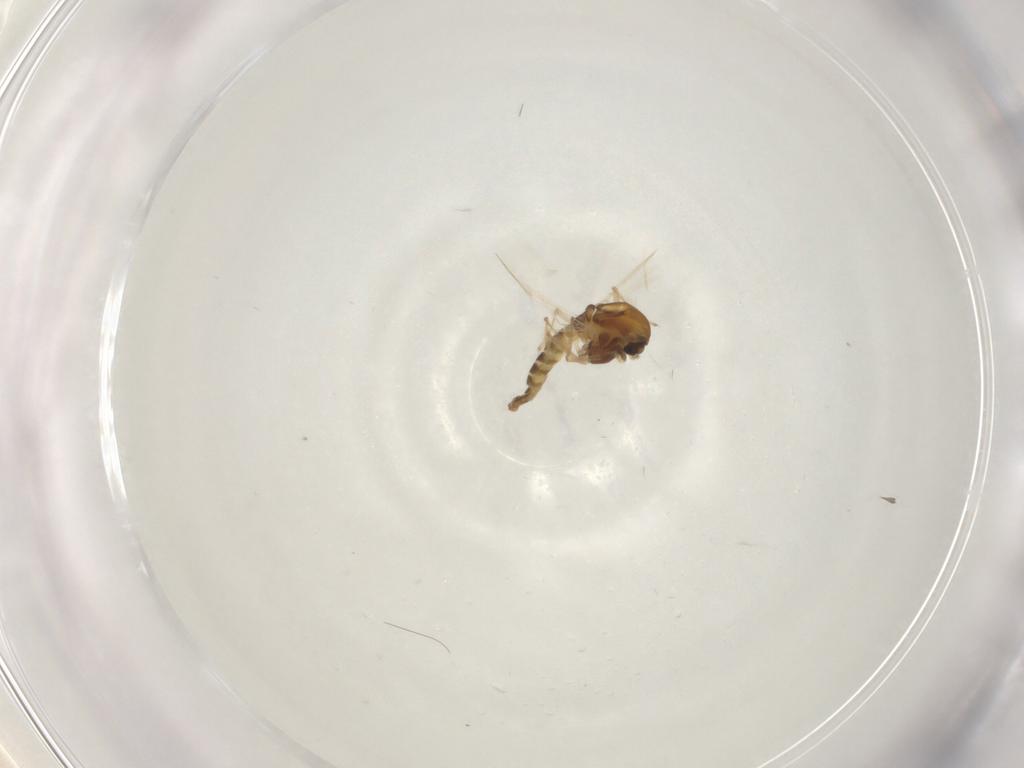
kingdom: Animalia
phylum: Arthropoda
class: Insecta
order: Diptera
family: Chironomidae
